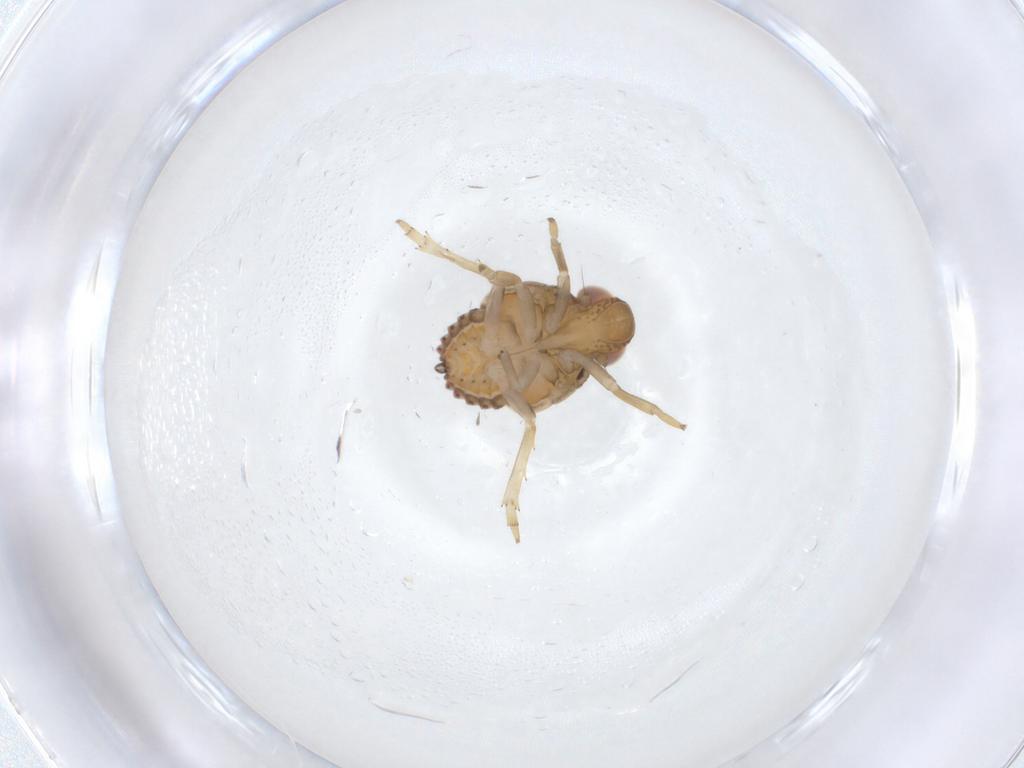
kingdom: Animalia
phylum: Arthropoda
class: Insecta
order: Hemiptera
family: Issidae
